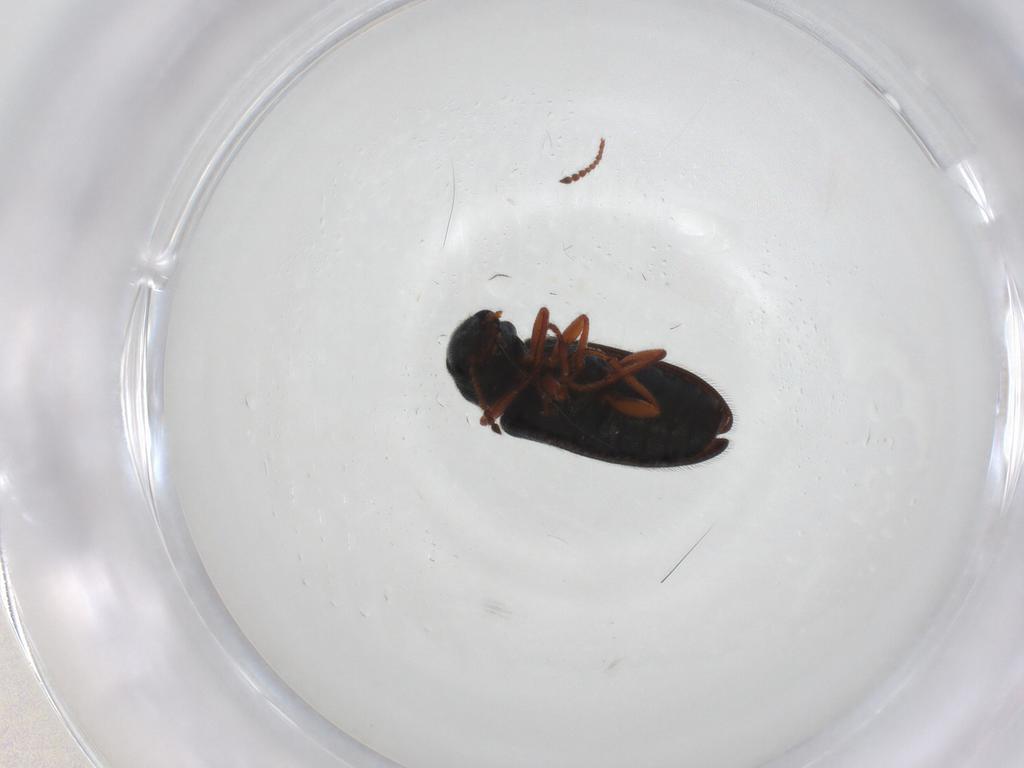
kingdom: Animalia
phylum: Arthropoda
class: Insecta
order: Coleoptera
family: Melyridae
